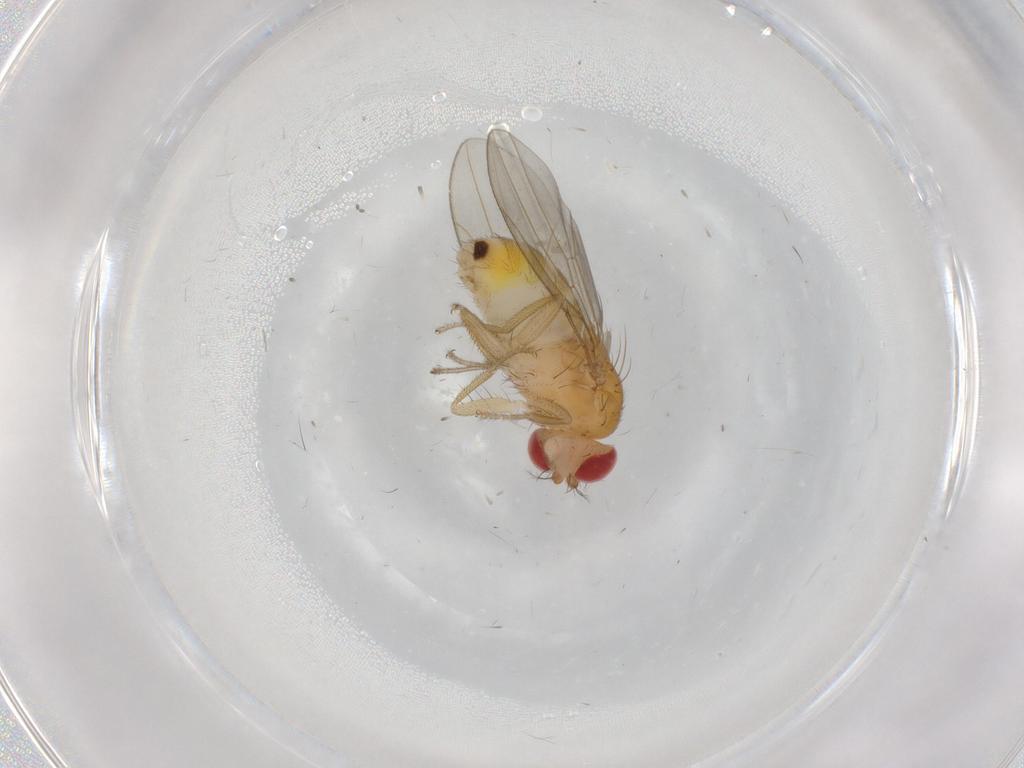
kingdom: Animalia
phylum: Arthropoda
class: Insecta
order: Diptera
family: Drosophilidae
